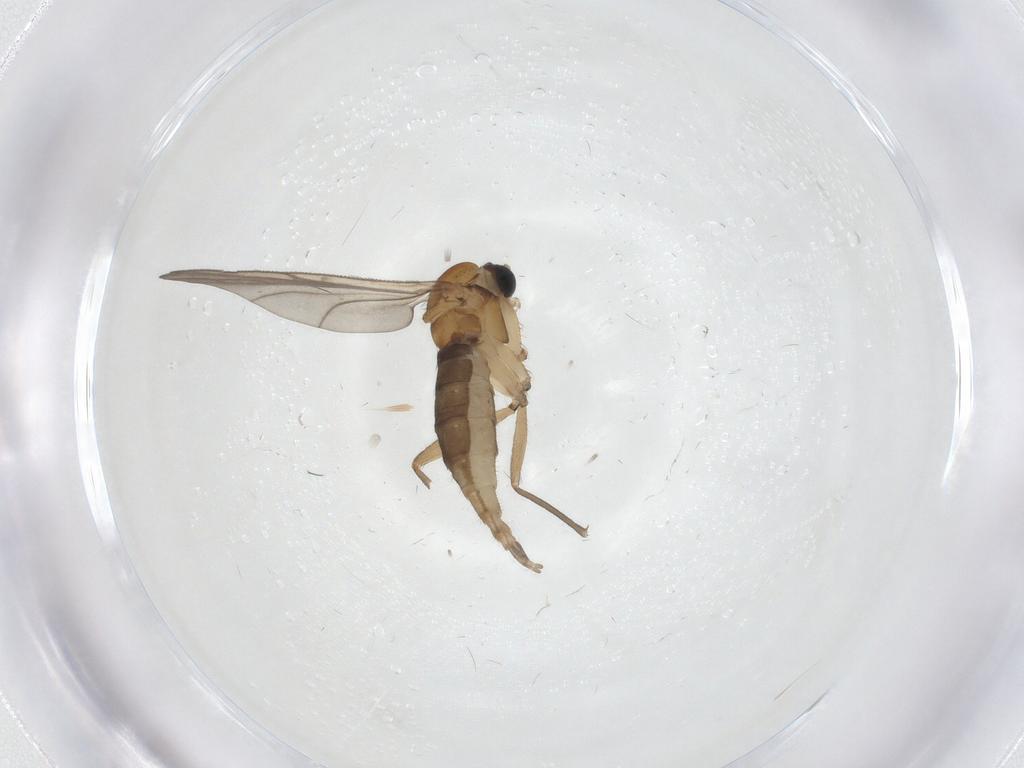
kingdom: Animalia
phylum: Arthropoda
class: Insecta
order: Diptera
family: Sciaridae
